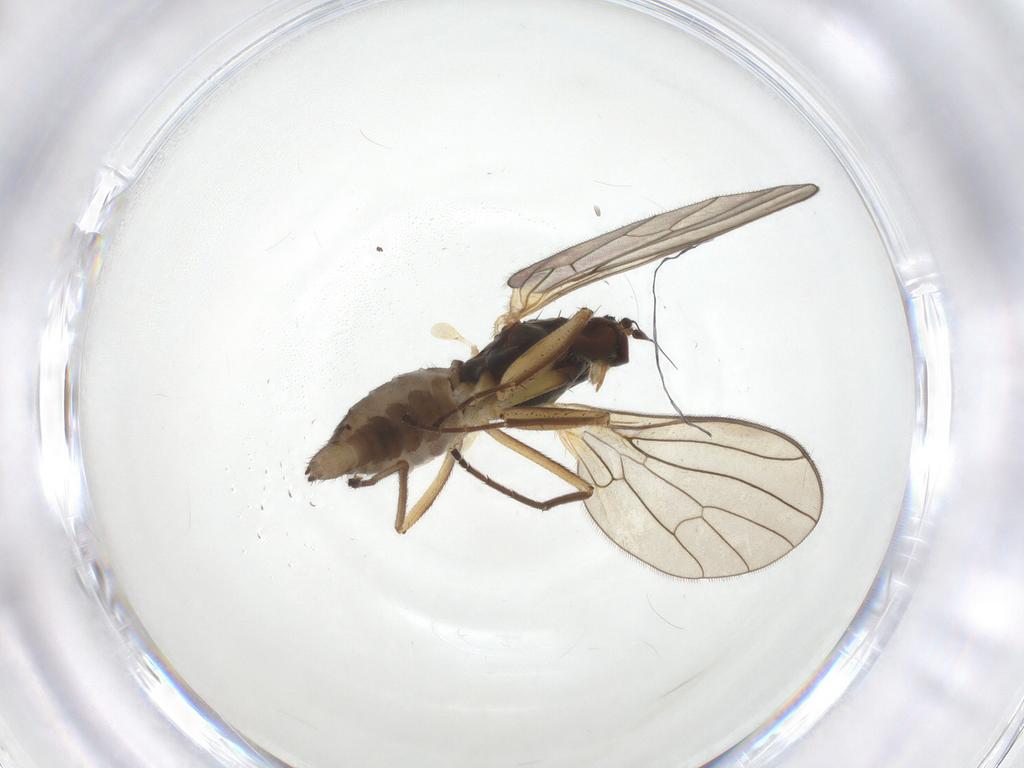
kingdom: Animalia
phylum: Arthropoda
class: Insecta
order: Diptera
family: Empididae
